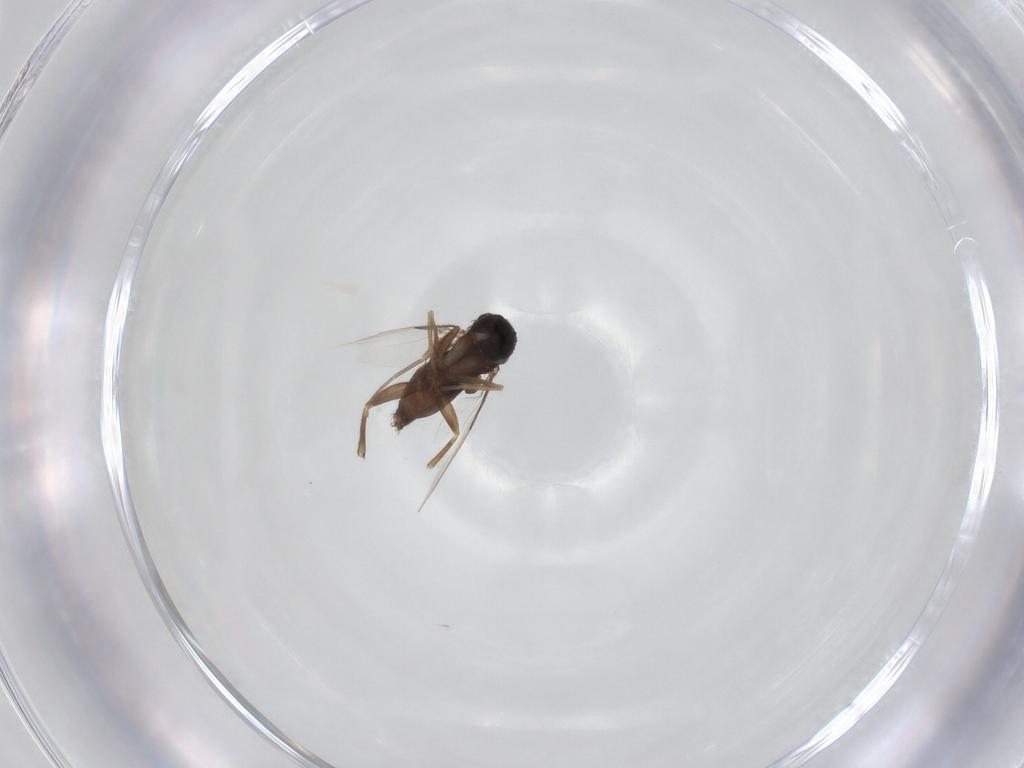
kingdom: Animalia
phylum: Arthropoda
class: Insecta
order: Diptera
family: Phoridae
